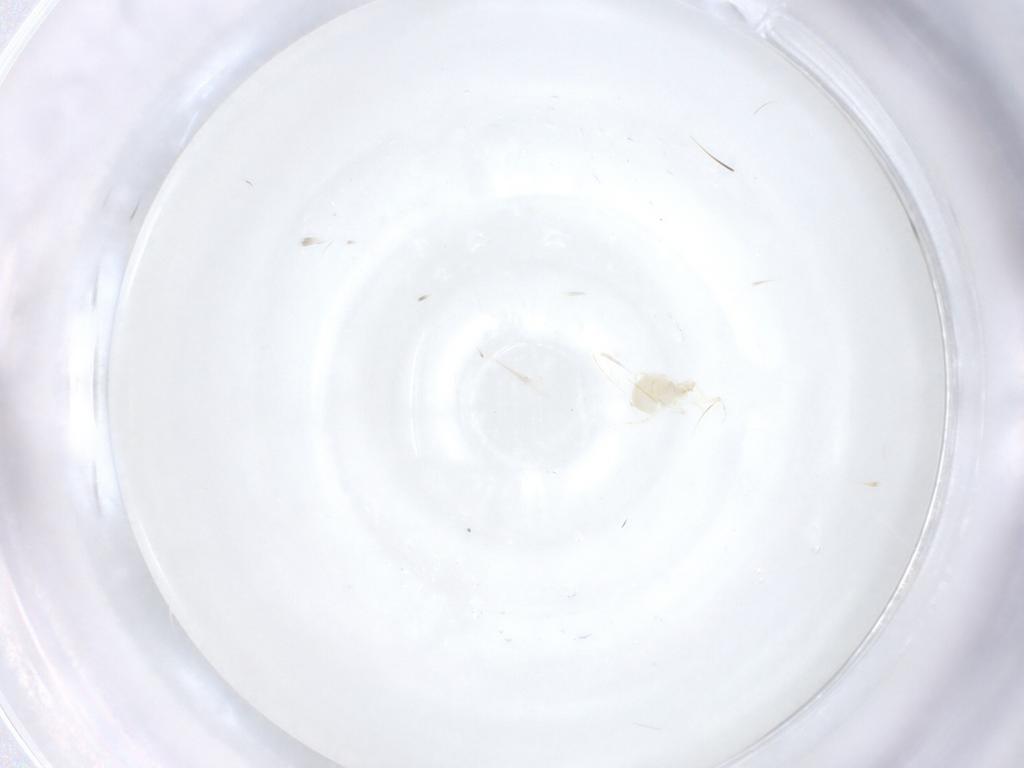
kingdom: Animalia
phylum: Arthropoda
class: Arachnida
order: Mesostigmata
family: Phytoseiidae
